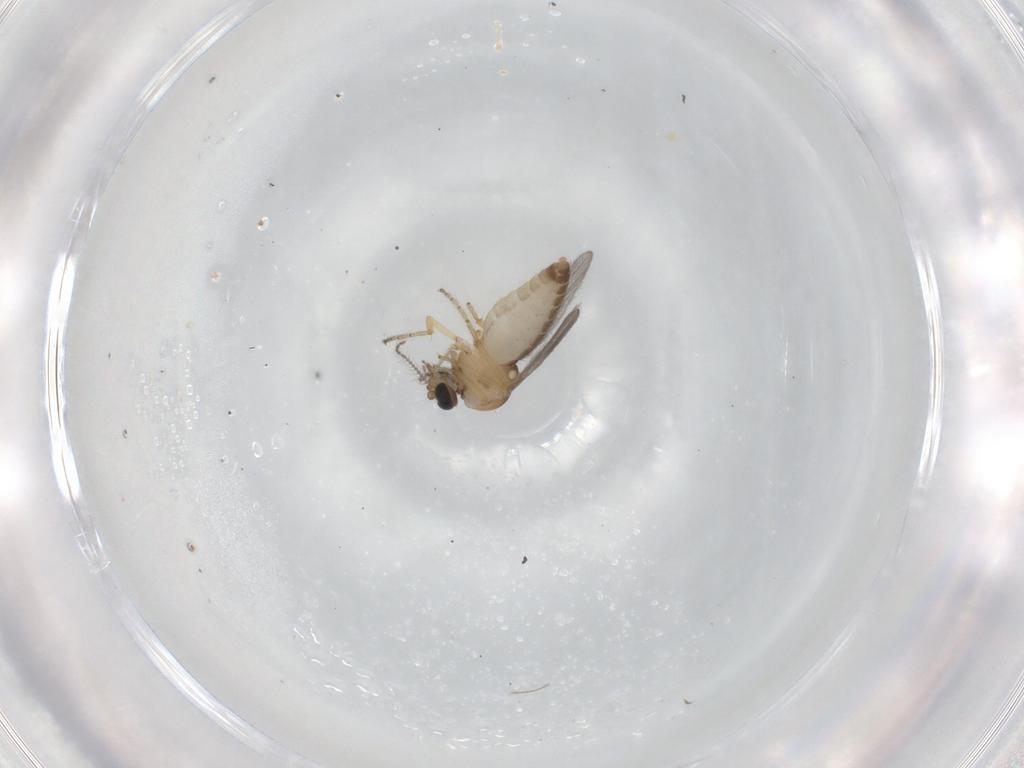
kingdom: Animalia
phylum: Arthropoda
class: Insecta
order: Diptera
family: Ceratopogonidae
